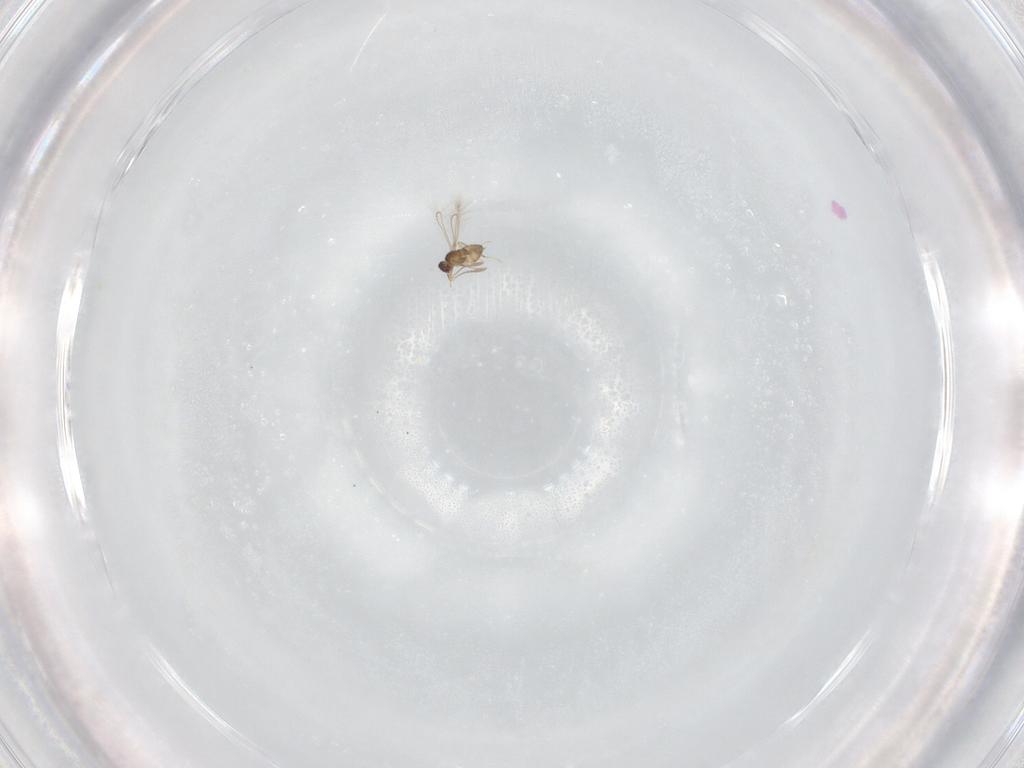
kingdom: Animalia
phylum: Arthropoda
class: Insecta
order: Hymenoptera
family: Mymaridae
